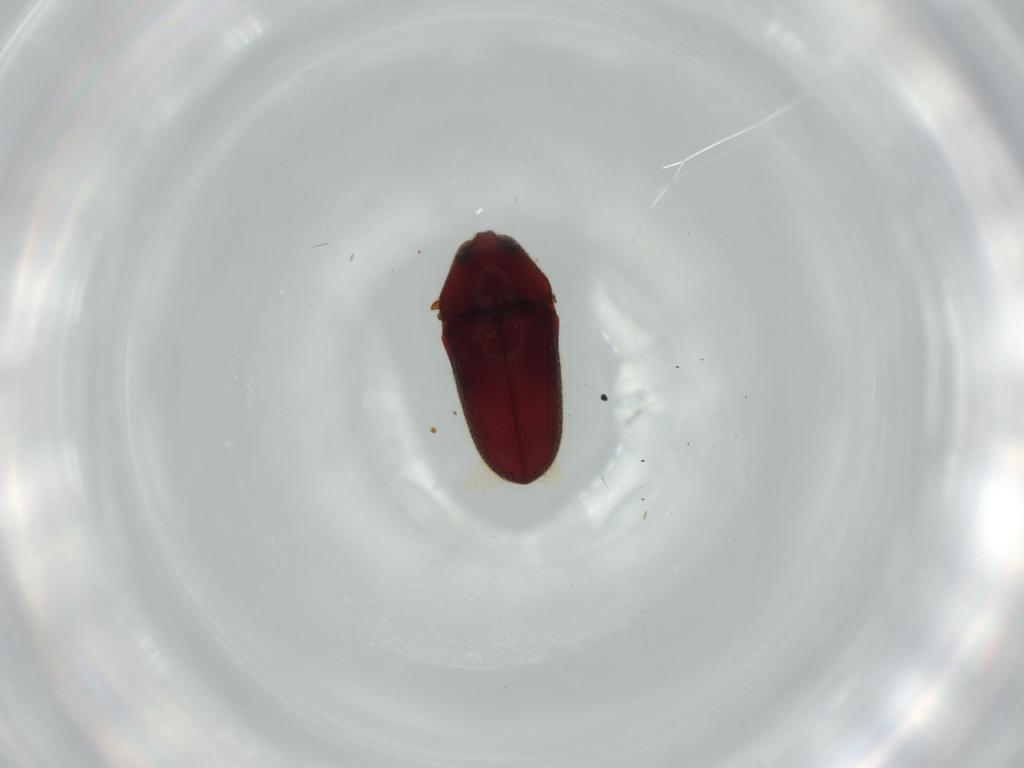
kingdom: Animalia
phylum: Arthropoda
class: Insecta
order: Coleoptera
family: Throscidae
